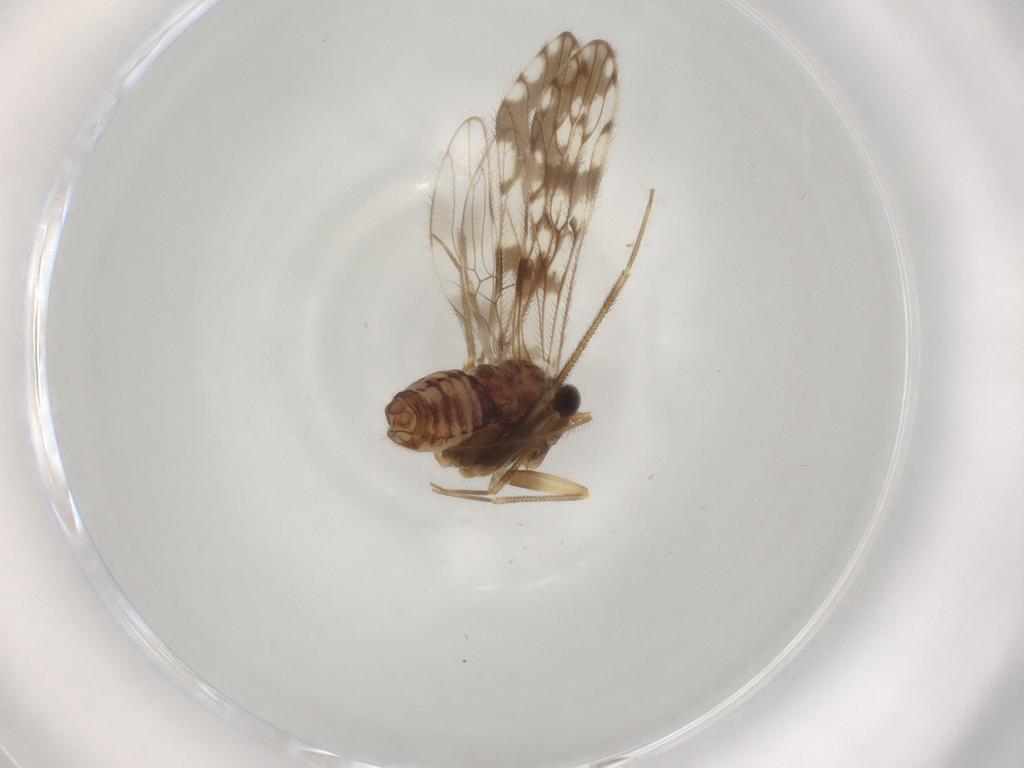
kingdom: Animalia
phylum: Arthropoda
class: Insecta
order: Psocodea
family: Epipsocidae
